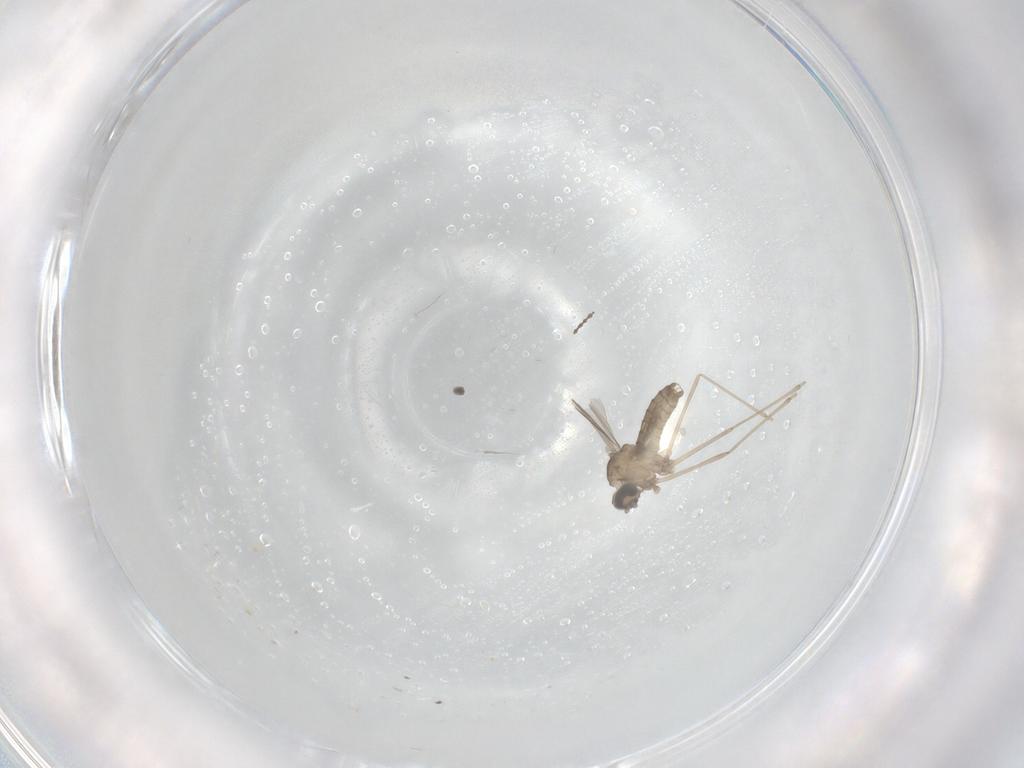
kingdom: Animalia
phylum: Arthropoda
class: Insecta
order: Diptera
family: Cecidomyiidae
